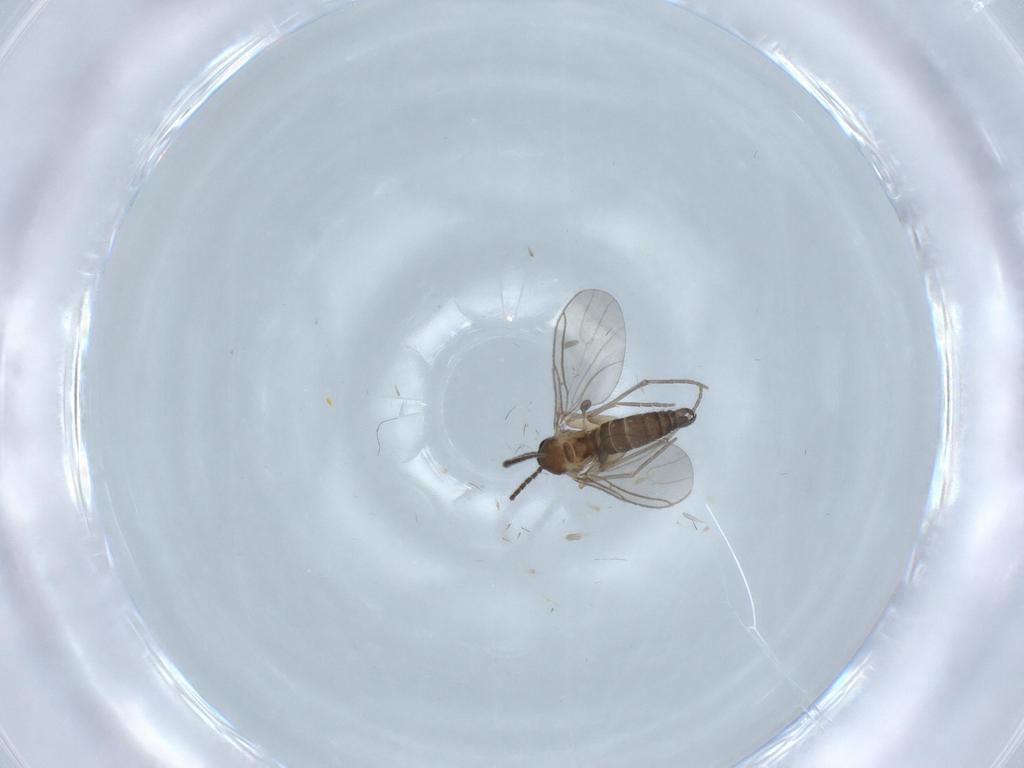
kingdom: Animalia
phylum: Arthropoda
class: Insecta
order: Diptera
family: Sciaridae
